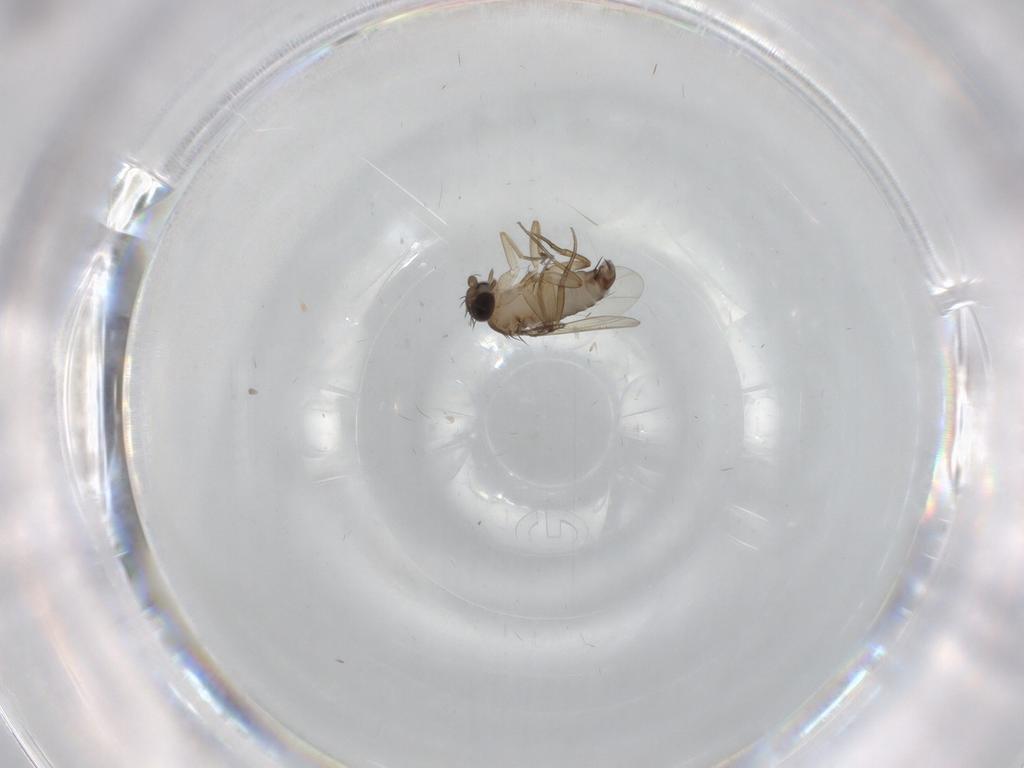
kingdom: Animalia
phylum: Arthropoda
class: Insecta
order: Diptera
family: Phoridae
